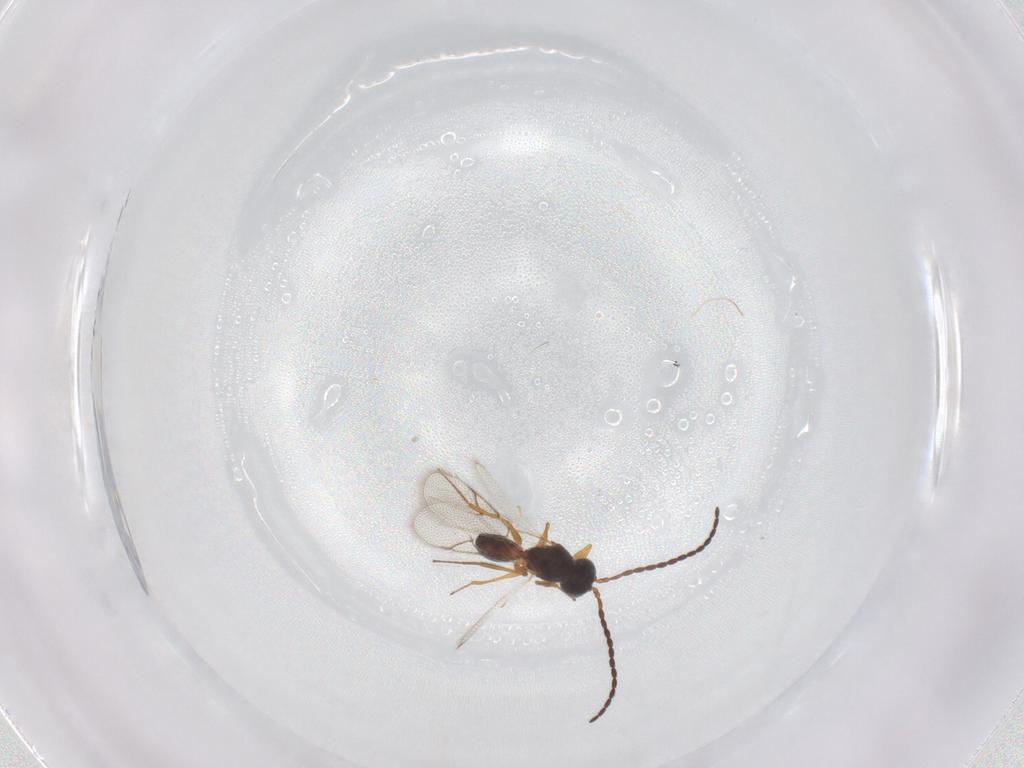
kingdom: Animalia
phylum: Arthropoda
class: Insecta
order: Hymenoptera
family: Figitidae
